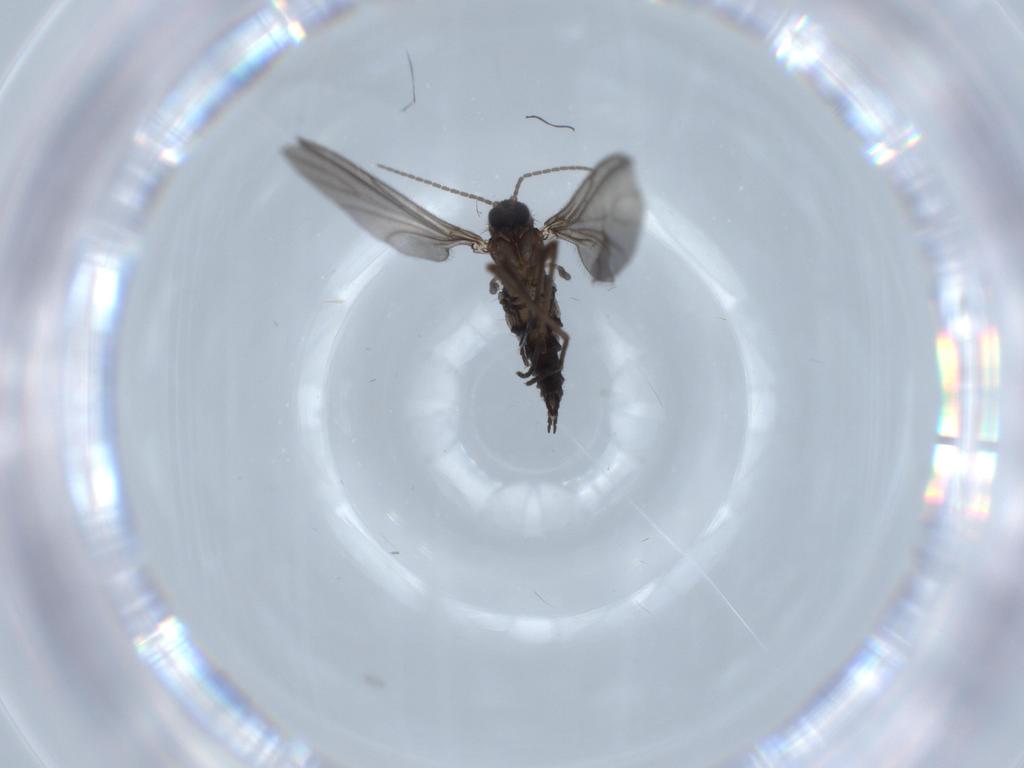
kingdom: Animalia
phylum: Arthropoda
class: Insecta
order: Diptera
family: Sciaridae
